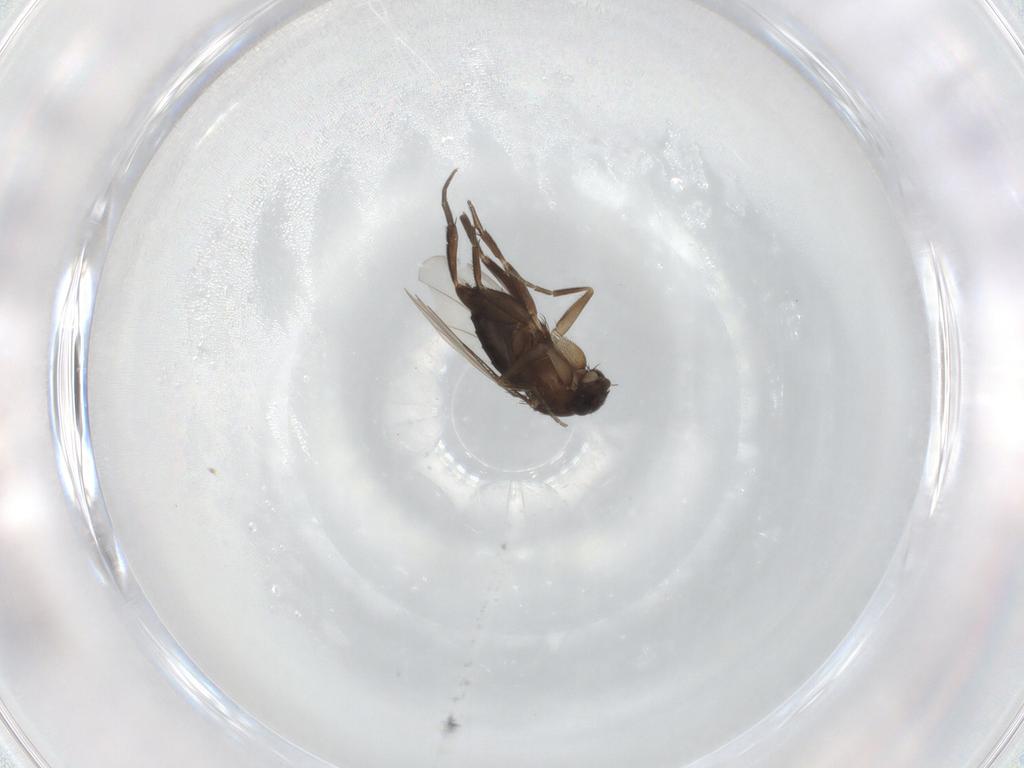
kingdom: Animalia
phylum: Arthropoda
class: Insecta
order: Diptera
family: Phoridae
